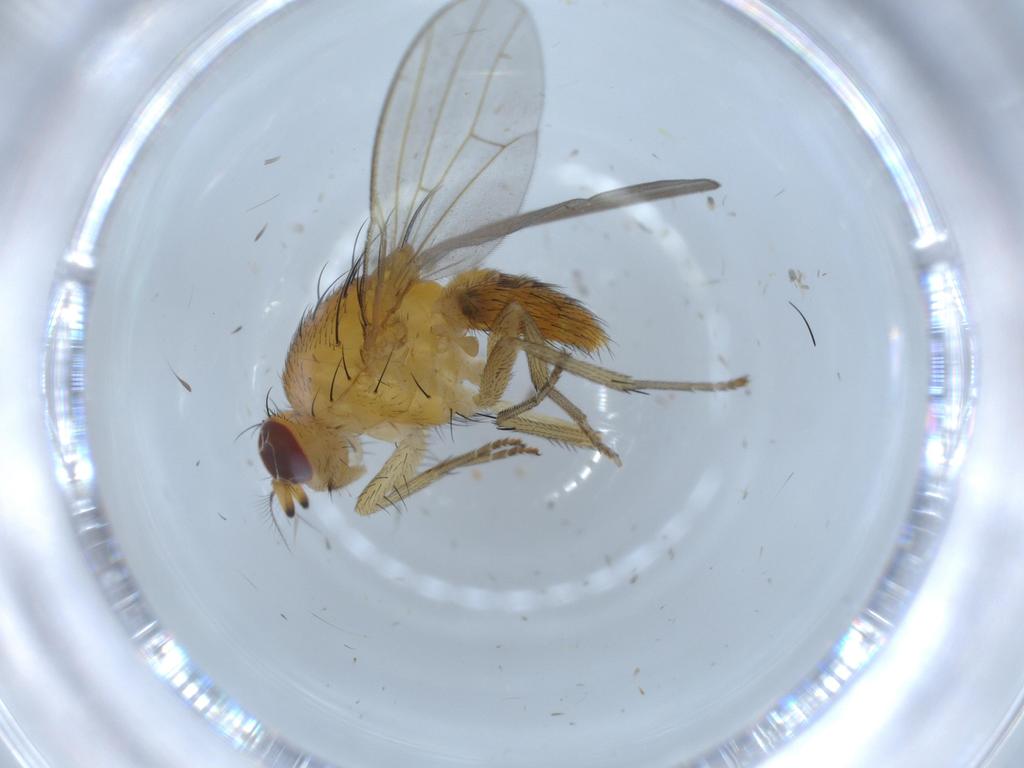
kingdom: Animalia
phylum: Arthropoda
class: Insecta
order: Diptera
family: Lauxaniidae
